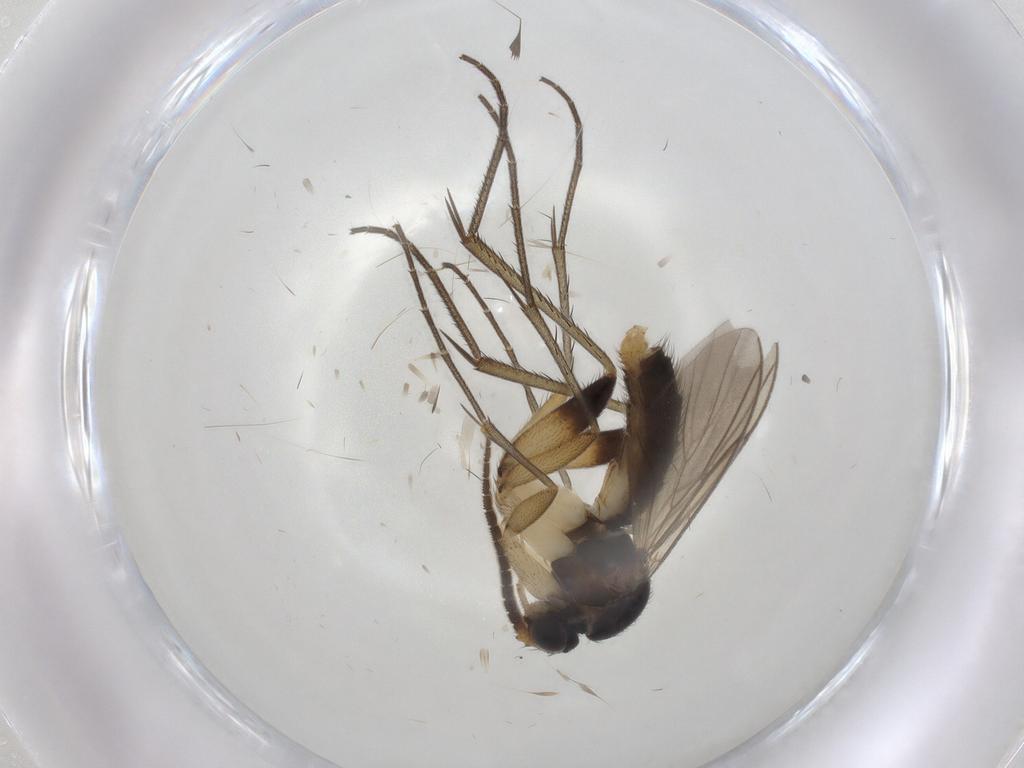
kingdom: Animalia
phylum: Arthropoda
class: Insecta
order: Diptera
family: Mycetophilidae
